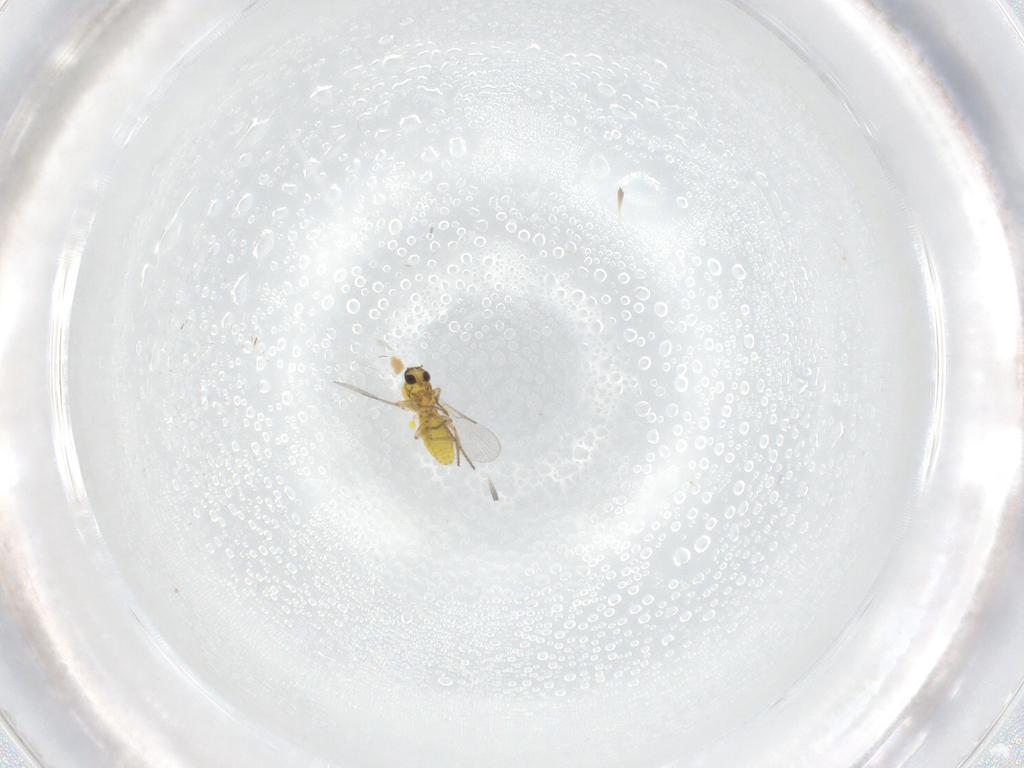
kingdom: Animalia
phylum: Arthropoda
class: Insecta
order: Diptera
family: Ceratopogonidae
